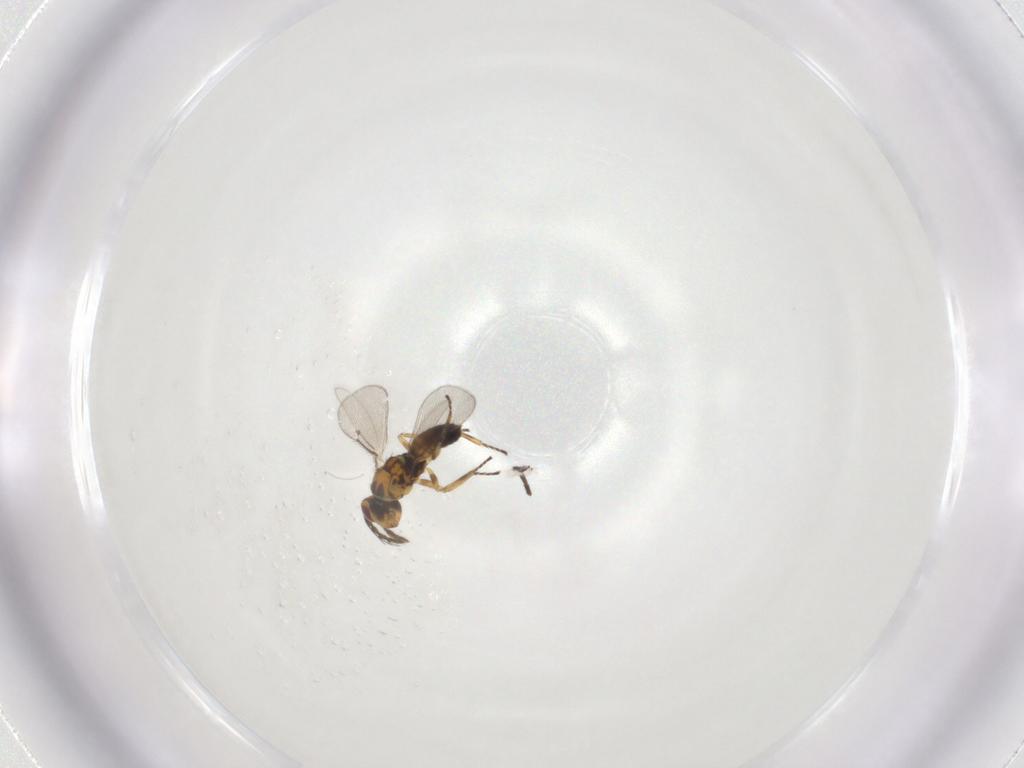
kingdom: Animalia
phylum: Arthropoda
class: Insecta
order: Hymenoptera
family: Eulophidae
